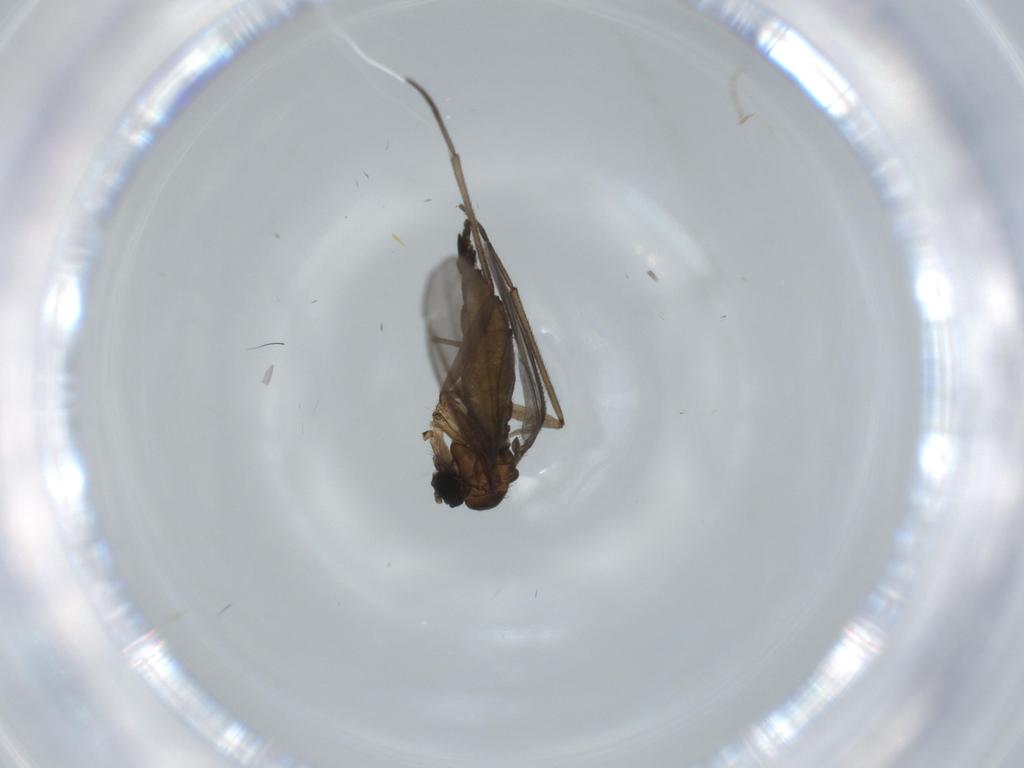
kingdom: Animalia
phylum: Arthropoda
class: Insecta
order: Diptera
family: Sciaridae
